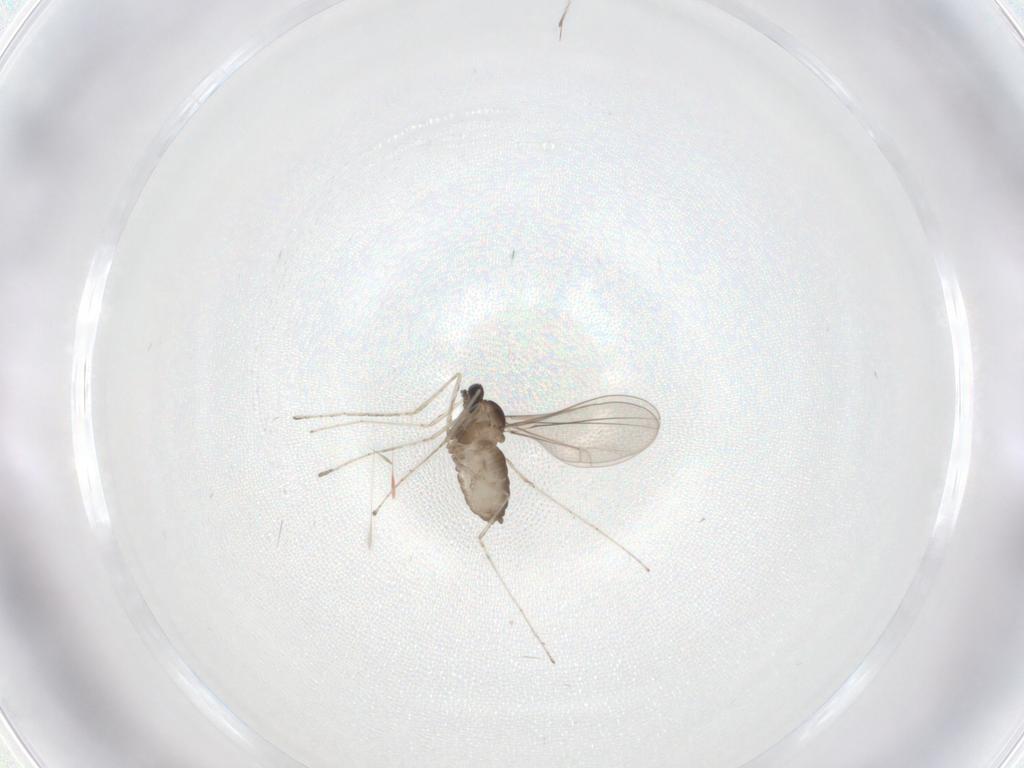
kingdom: Animalia
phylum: Arthropoda
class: Insecta
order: Diptera
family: Cecidomyiidae
